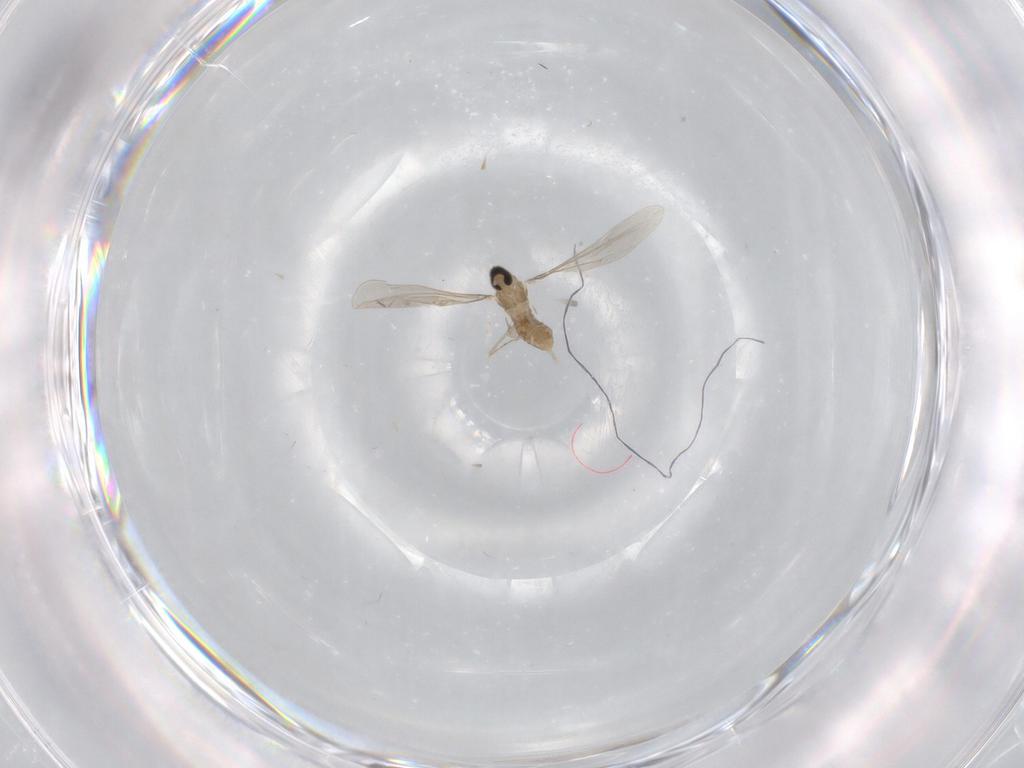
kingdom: Animalia
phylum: Arthropoda
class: Insecta
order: Diptera
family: Cecidomyiidae
